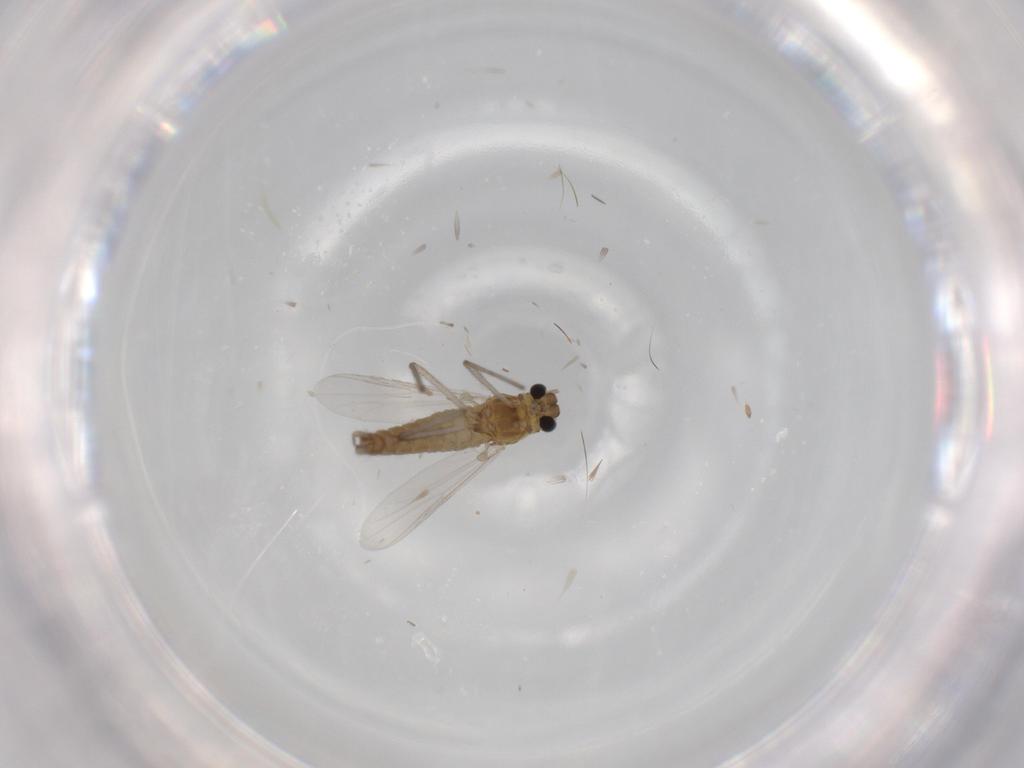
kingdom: Animalia
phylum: Arthropoda
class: Insecta
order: Diptera
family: Chironomidae
